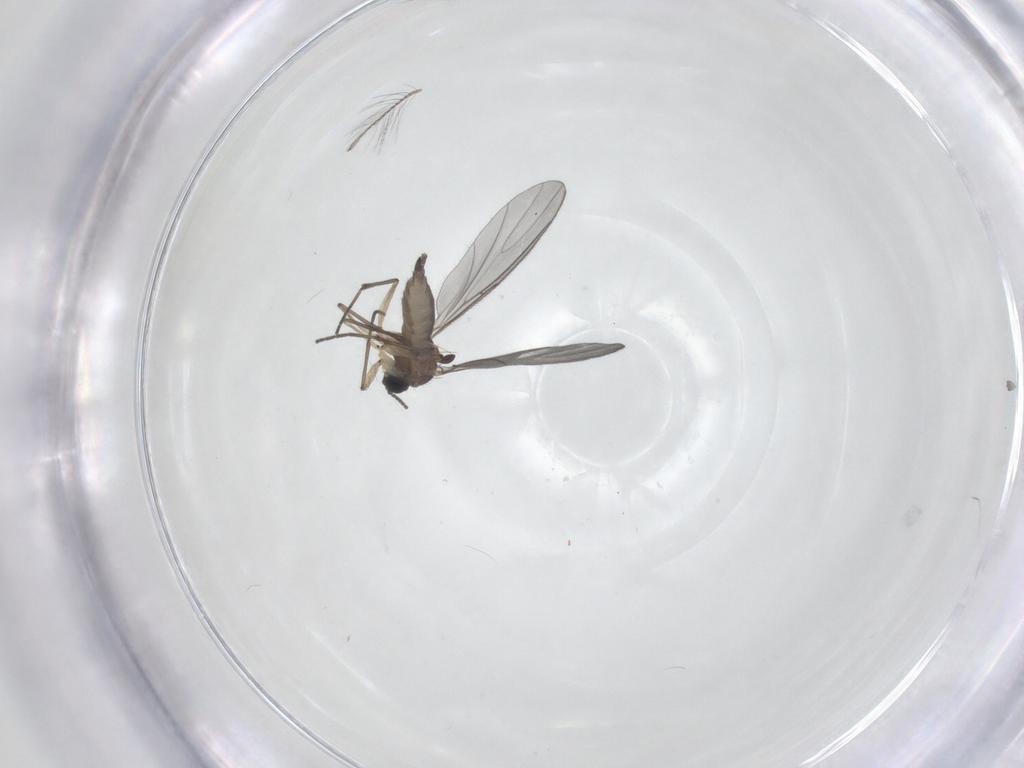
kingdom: Animalia
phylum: Arthropoda
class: Insecta
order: Diptera
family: Sciaridae
